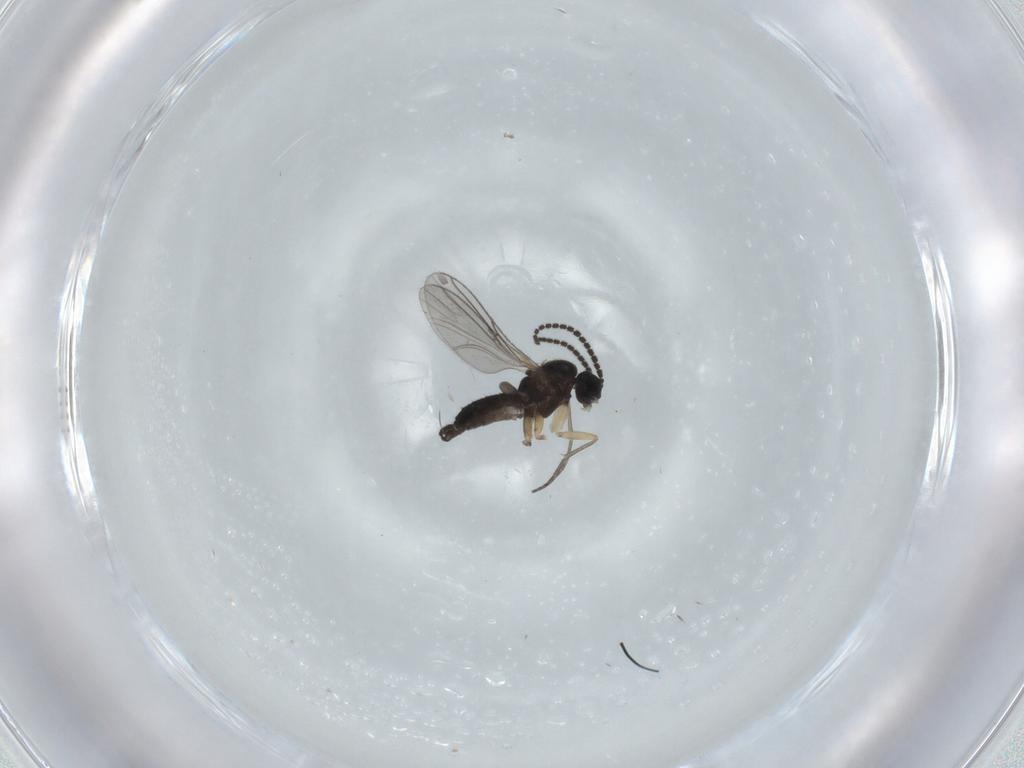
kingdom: Animalia
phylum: Arthropoda
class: Insecta
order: Diptera
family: Sciaridae
